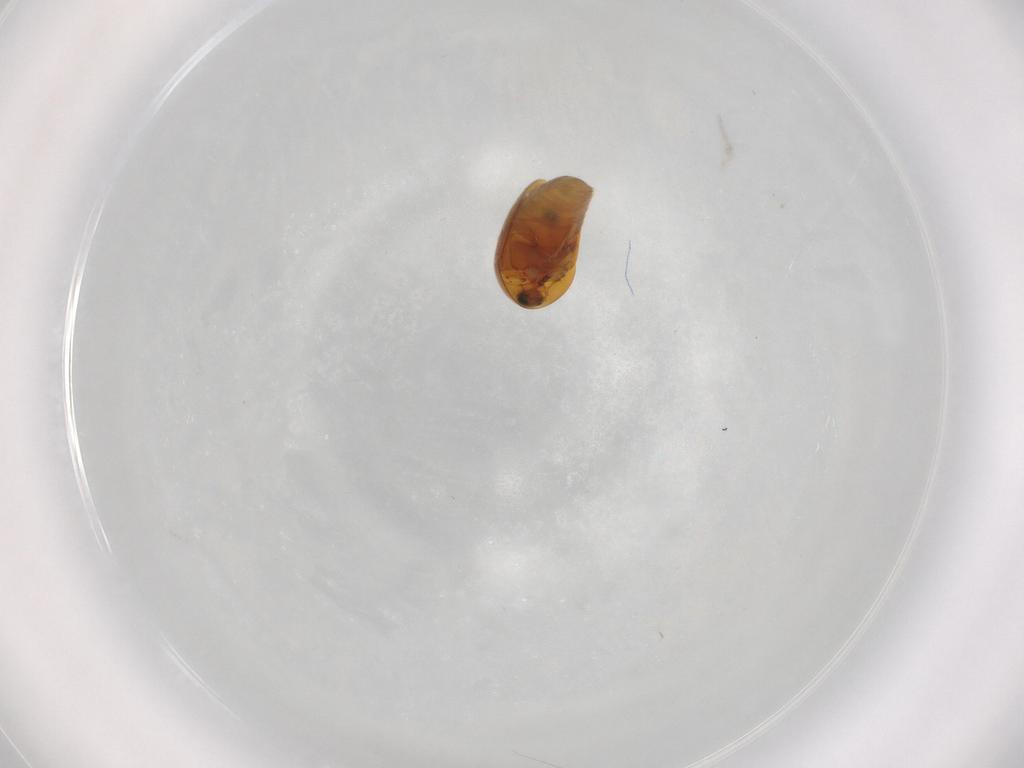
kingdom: Animalia
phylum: Arthropoda
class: Insecta
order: Coleoptera
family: Corylophidae
